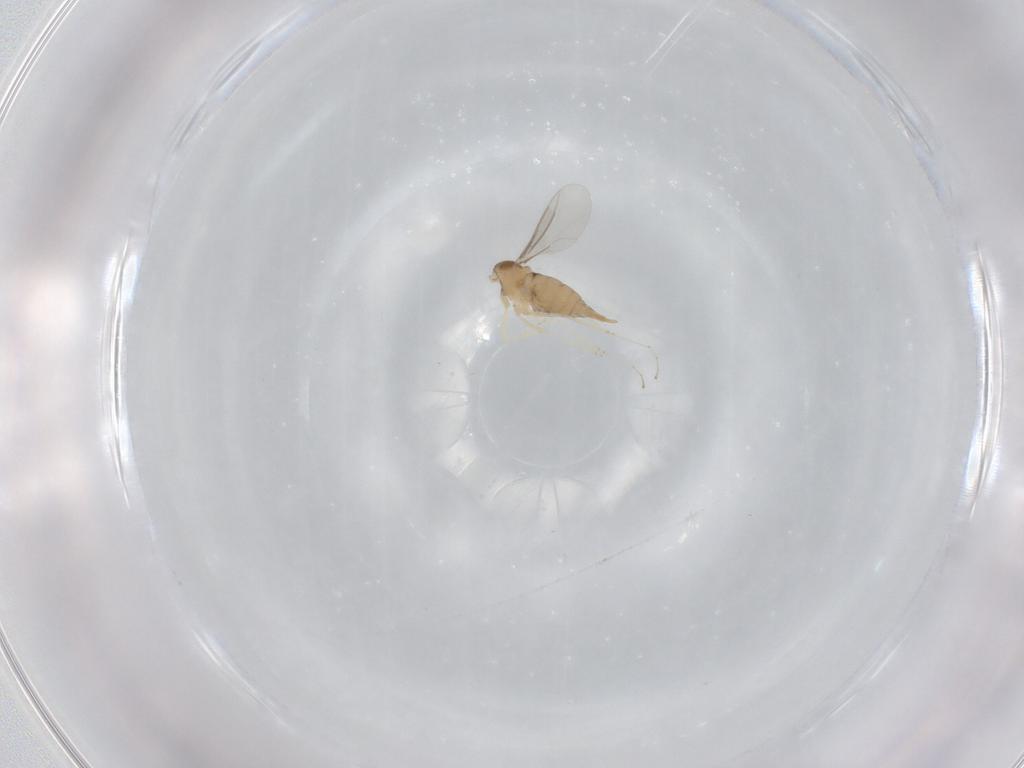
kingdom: Animalia
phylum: Arthropoda
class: Insecta
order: Diptera
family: Cecidomyiidae
